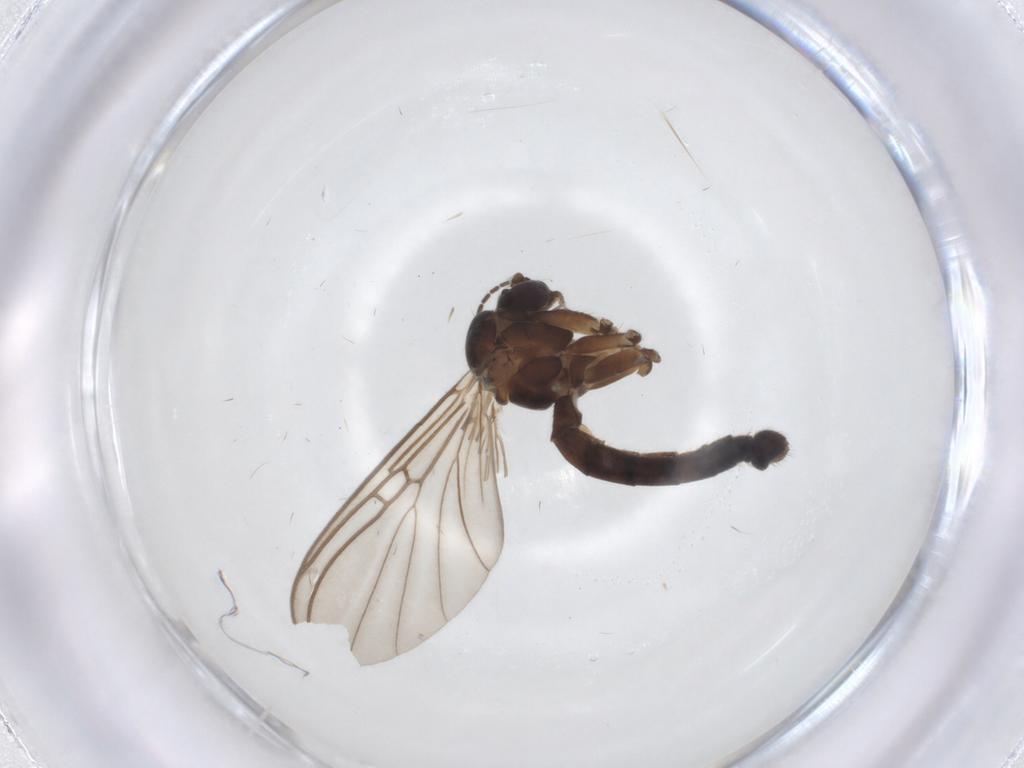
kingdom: Animalia
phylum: Arthropoda
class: Insecta
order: Diptera
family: Sciaridae
